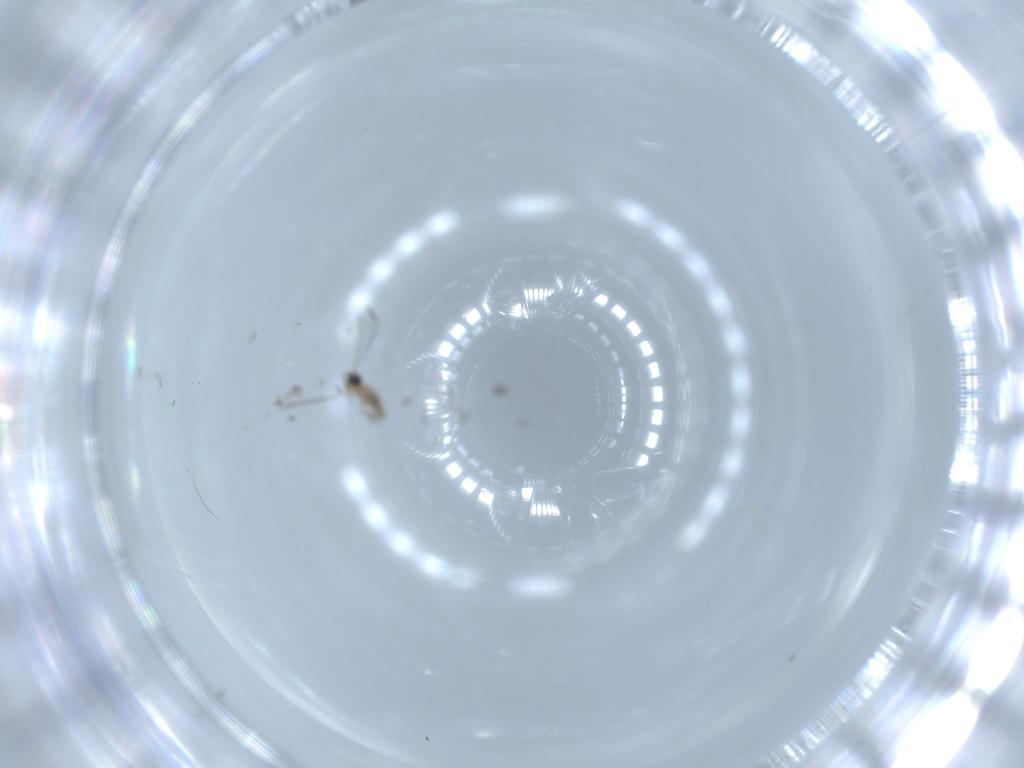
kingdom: Animalia
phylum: Arthropoda
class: Insecta
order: Diptera
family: Cecidomyiidae
